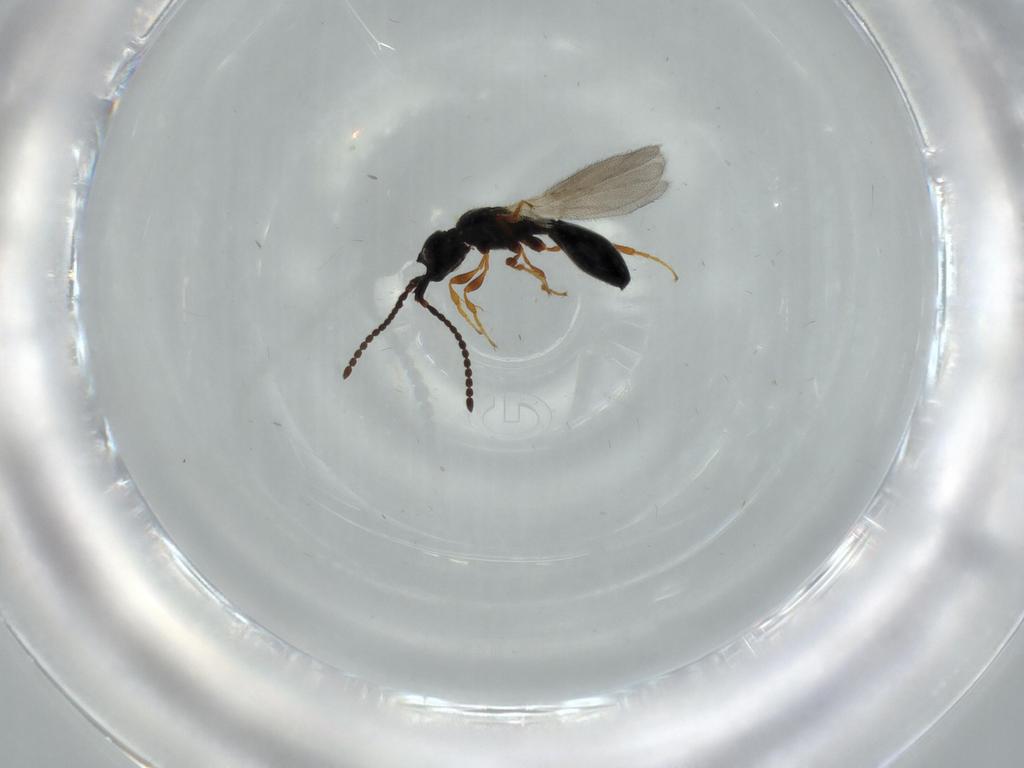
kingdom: Animalia
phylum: Arthropoda
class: Insecta
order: Hymenoptera
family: Diapriidae
